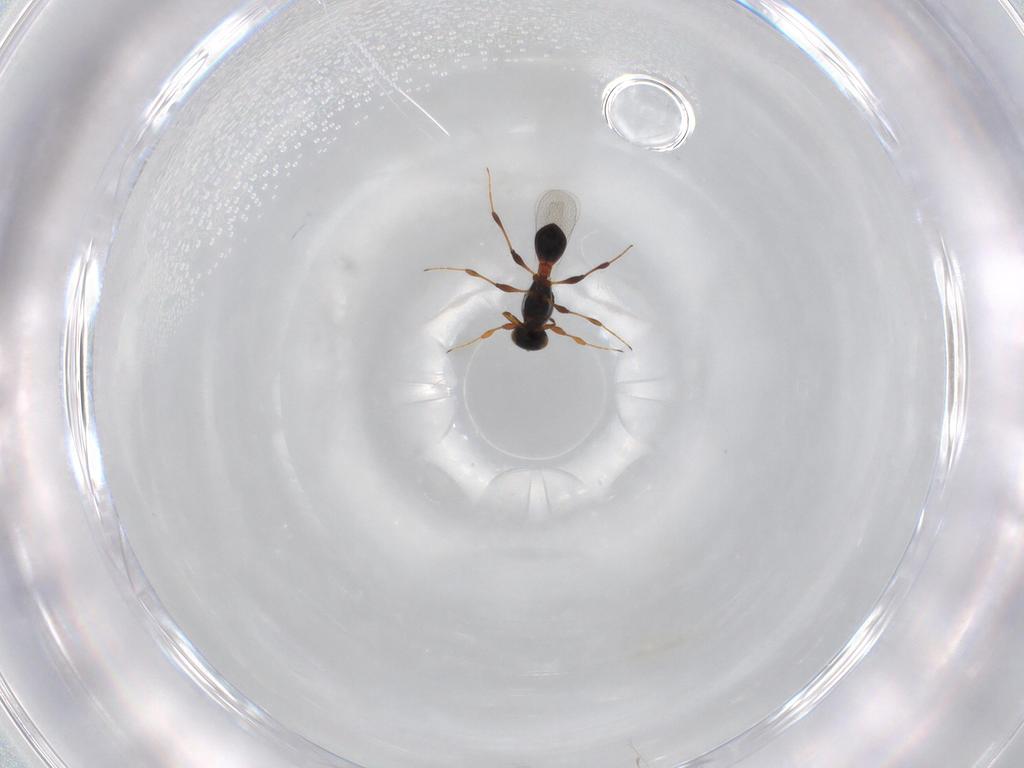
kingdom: Animalia
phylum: Arthropoda
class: Insecta
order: Hymenoptera
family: Platygastridae
